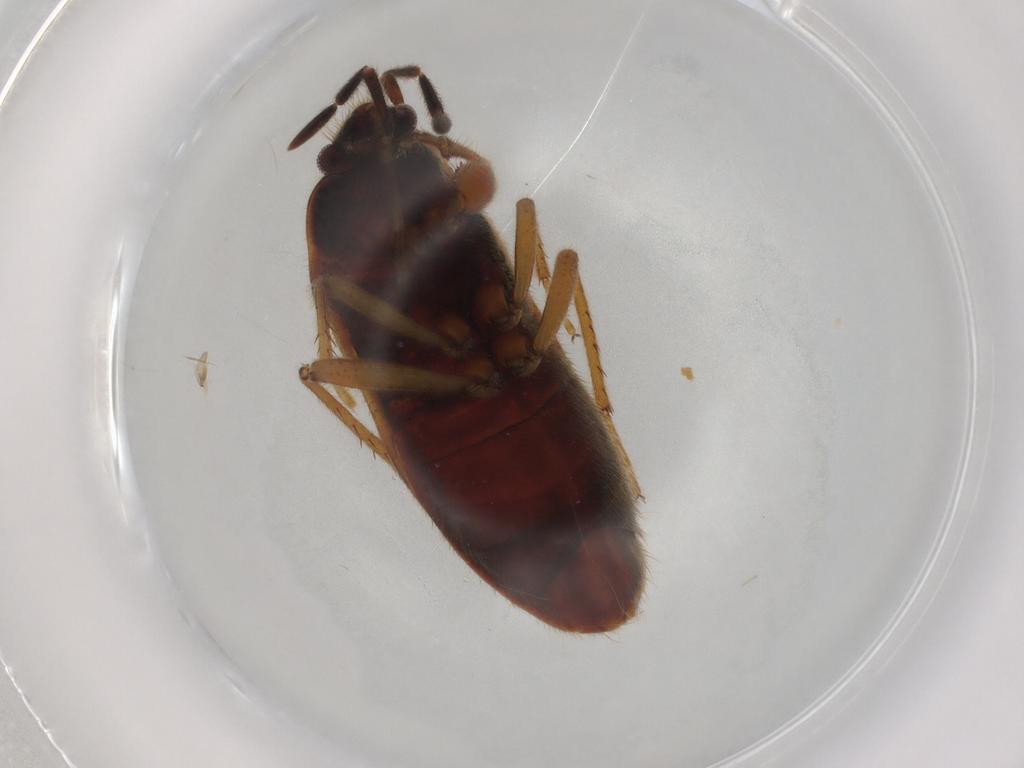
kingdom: Animalia
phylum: Arthropoda
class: Insecta
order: Hemiptera
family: Rhyparochromidae
